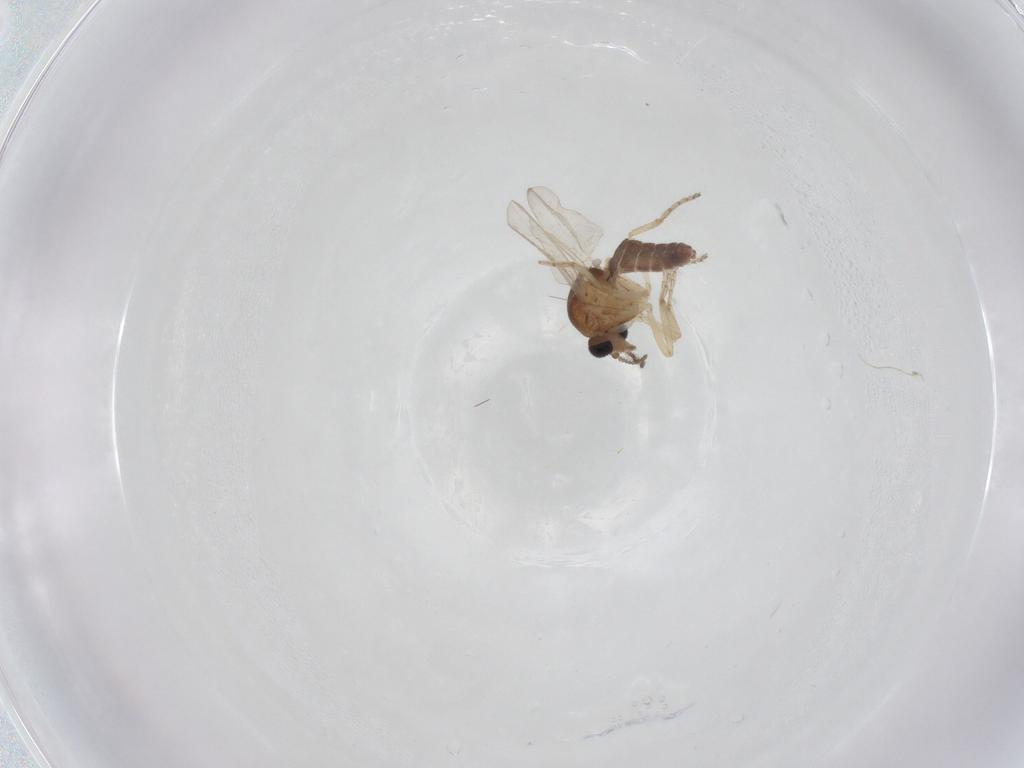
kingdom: Animalia
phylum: Arthropoda
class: Insecta
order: Diptera
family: Ceratopogonidae
